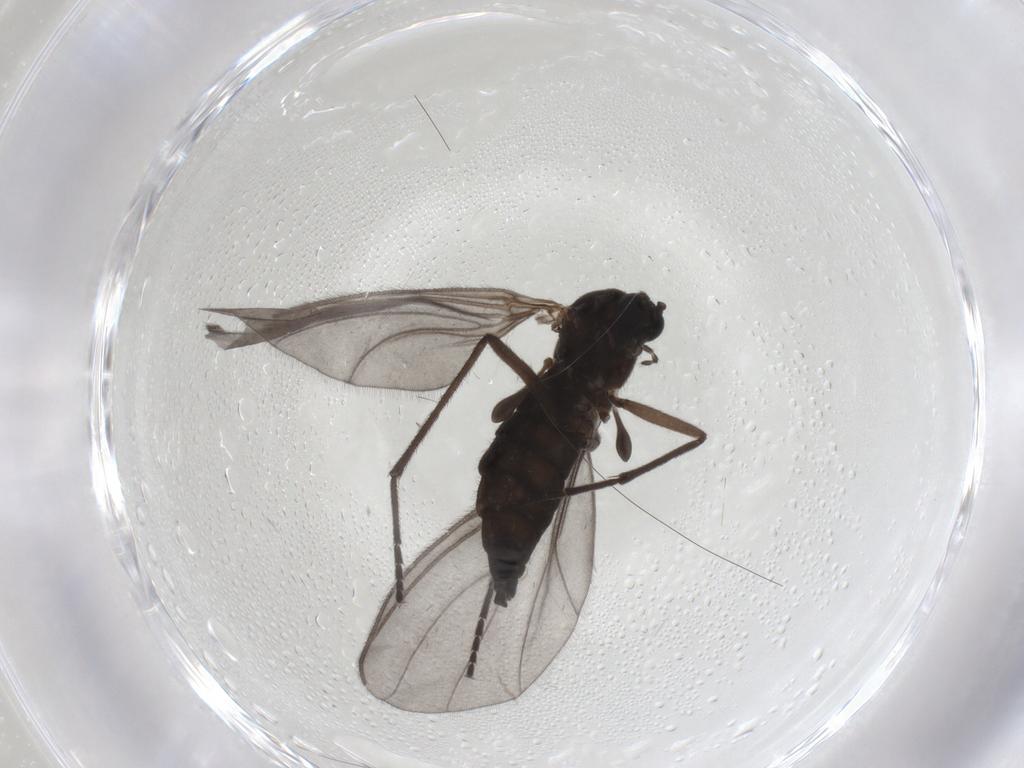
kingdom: Animalia
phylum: Arthropoda
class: Insecta
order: Diptera
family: Sciaridae
